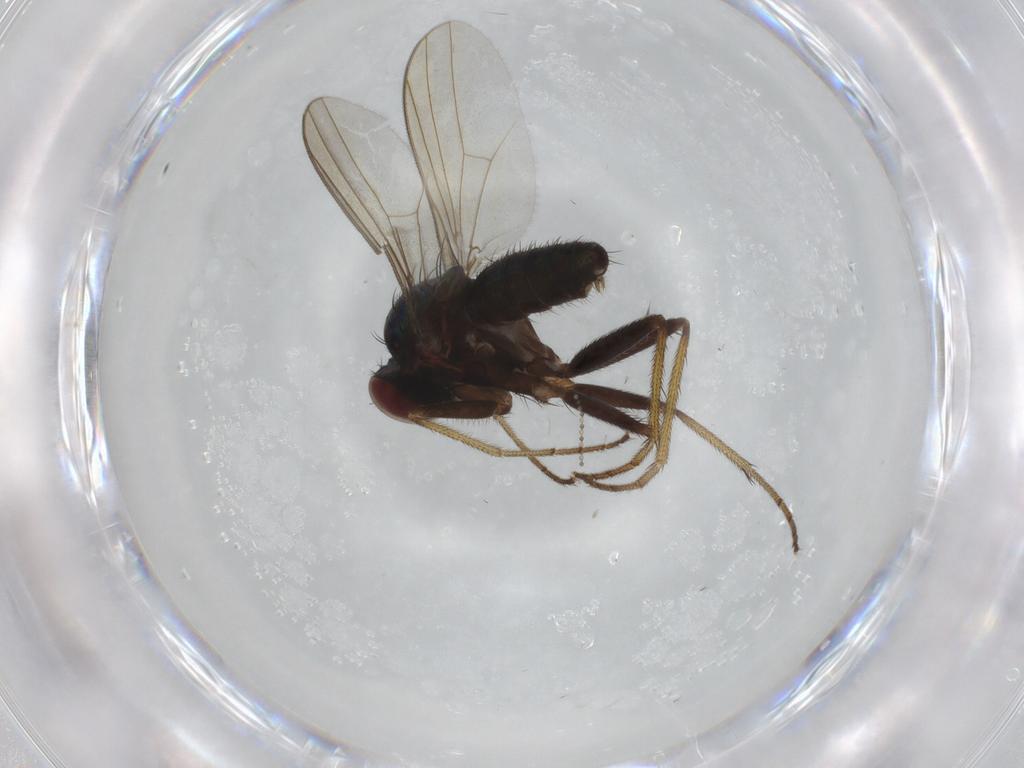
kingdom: Animalia
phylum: Arthropoda
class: Insecta
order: Diptera
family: Dolichopodidae
